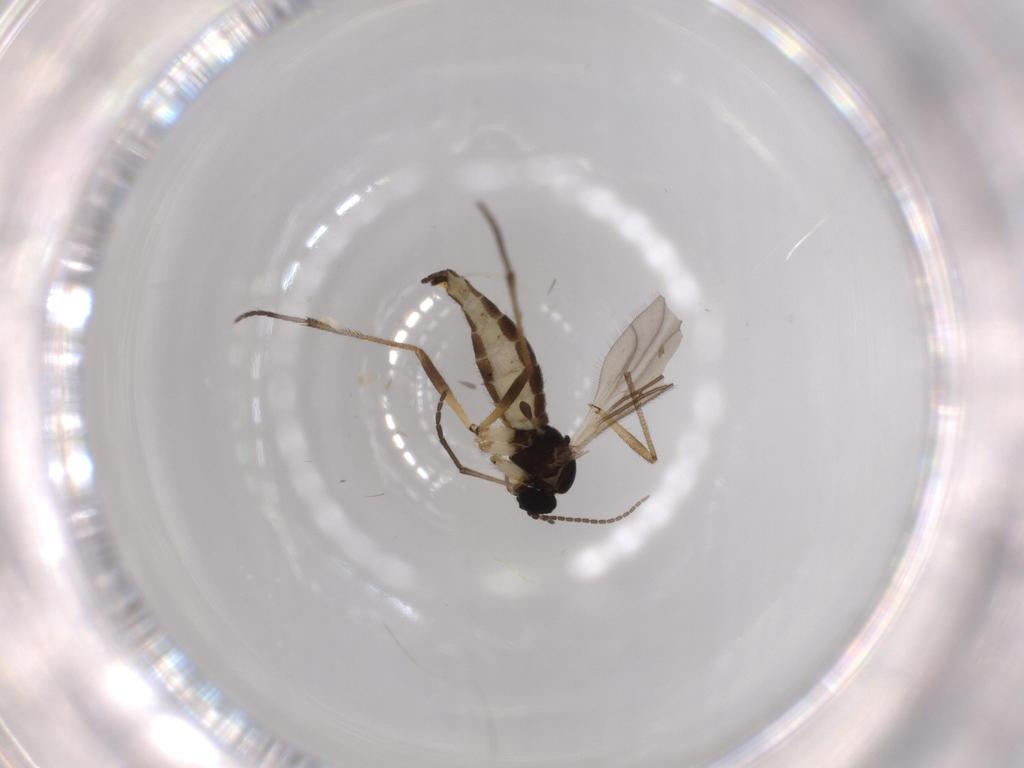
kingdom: Animalia
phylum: Arthropoda
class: Insecta
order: Diptera
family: Sciaridae
